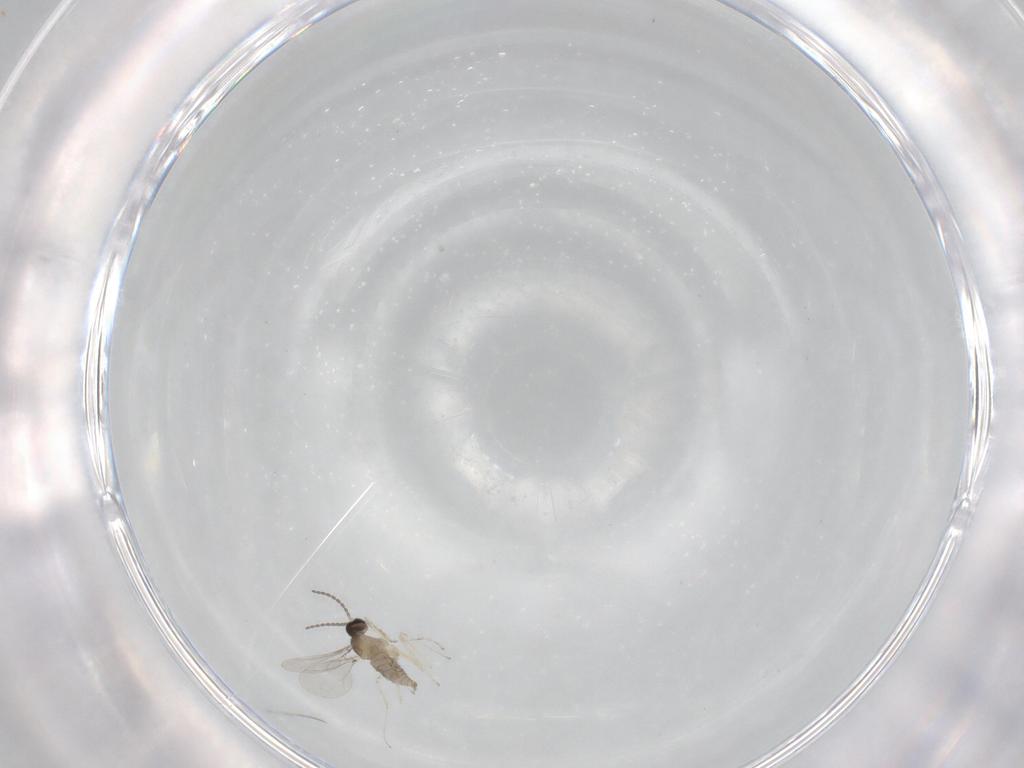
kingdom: Animalia
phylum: Arthropoda
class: Insecta
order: Diptera
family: Cecidomyiidae
